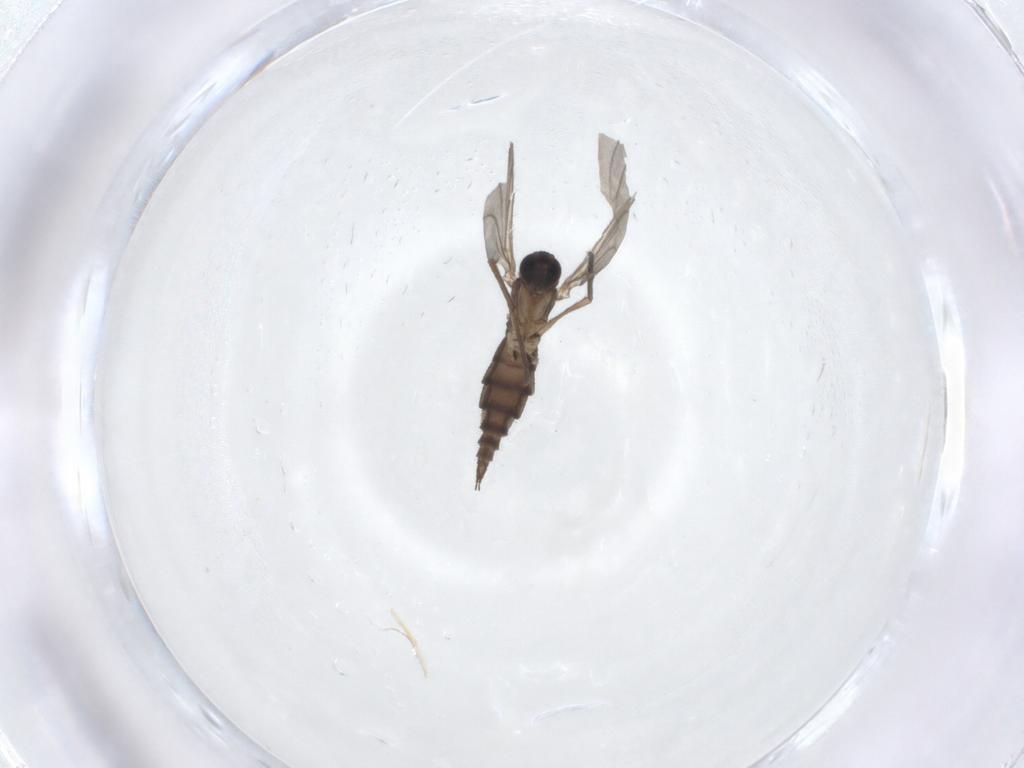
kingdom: Animalia
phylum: Arthropoda
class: Insecta
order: Diptera
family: Sciaridae
